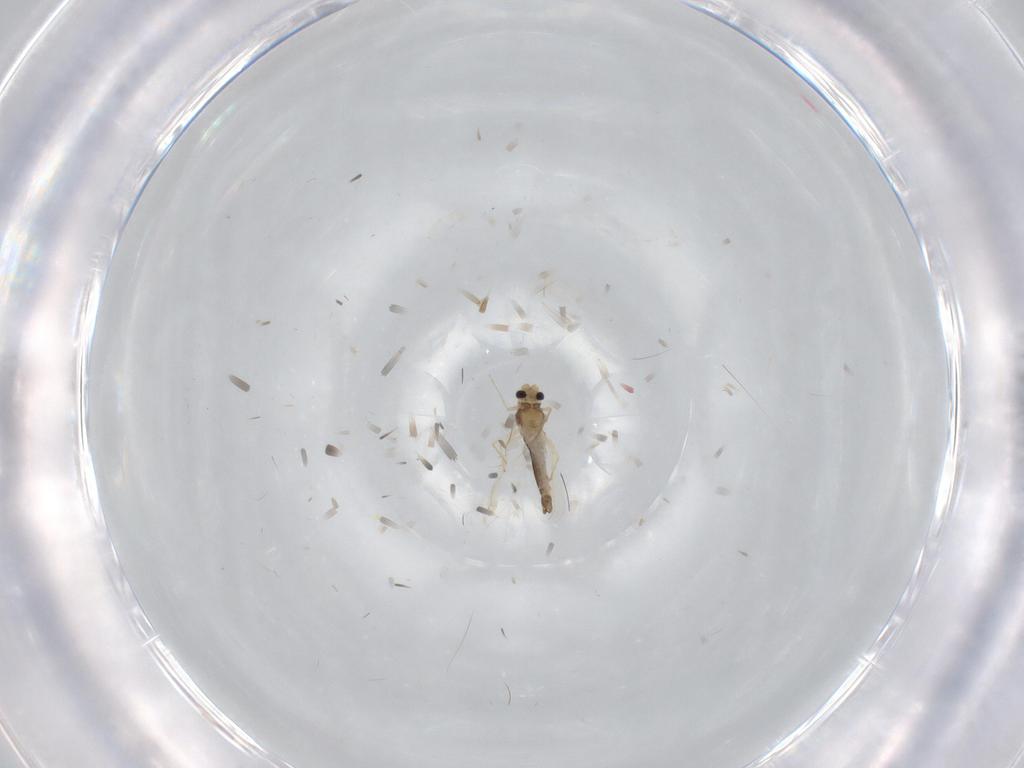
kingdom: Animalia
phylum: Arthropoda
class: Insecta
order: Diptera
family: Chironomidae
